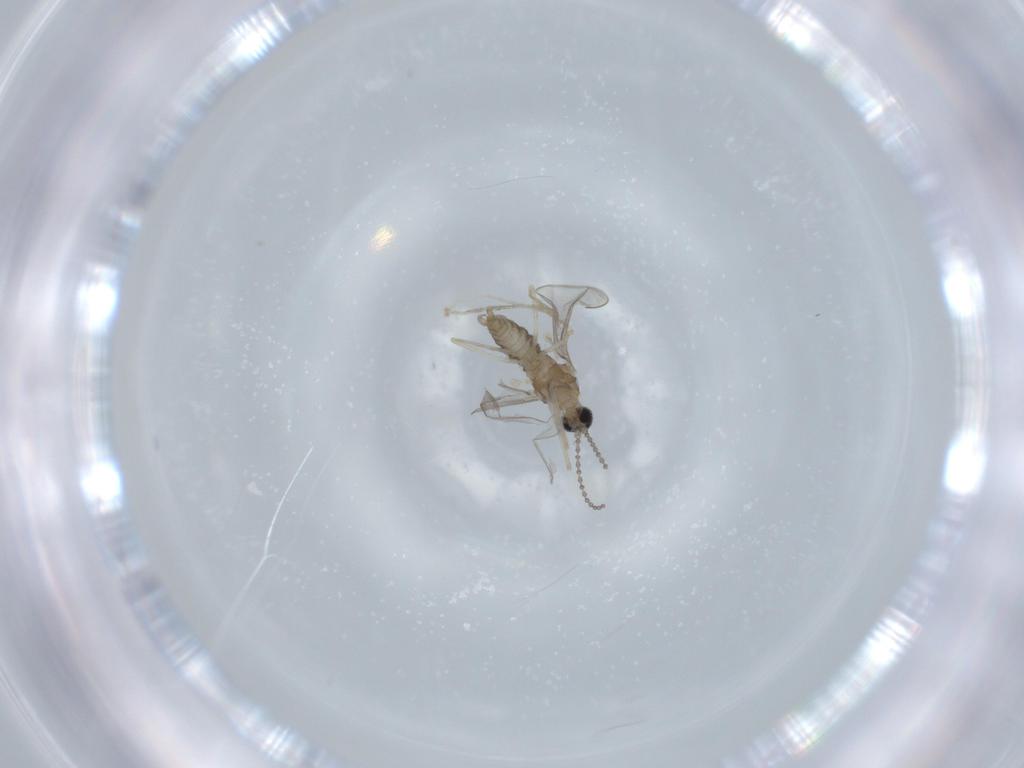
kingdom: Animalia
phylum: Arthropoda
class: Insecta
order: Diptera
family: Cecidomyiidae
